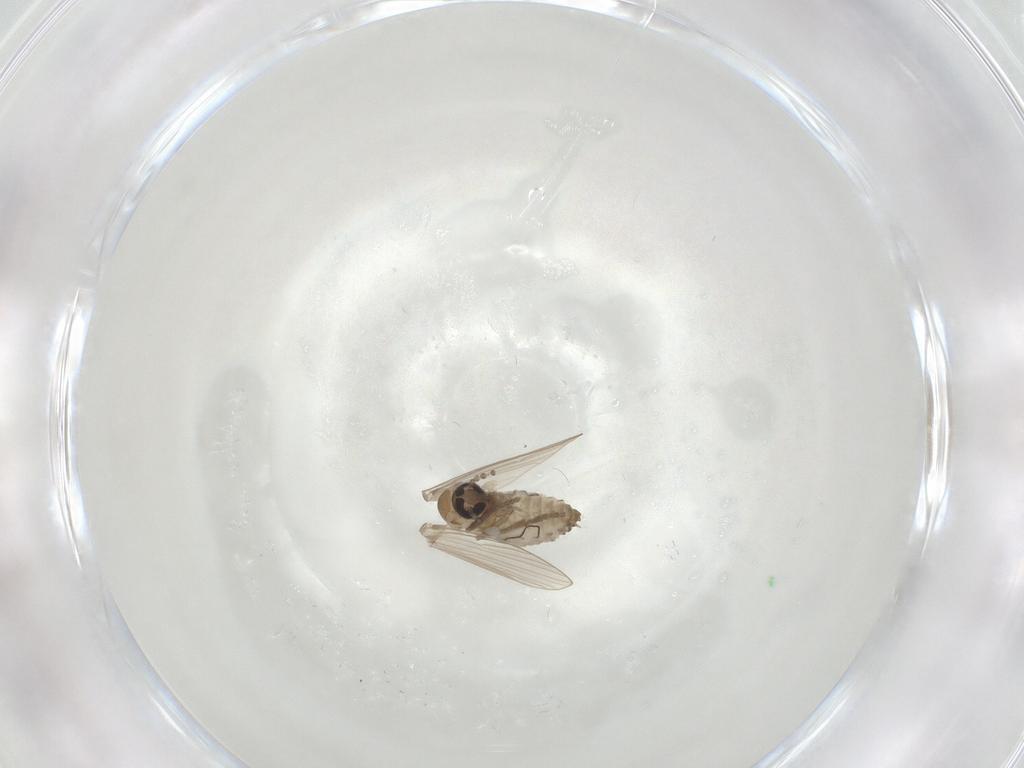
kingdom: Animalia
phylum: Arthropoda
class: Insecta
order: Diptera
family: Psychodidae
